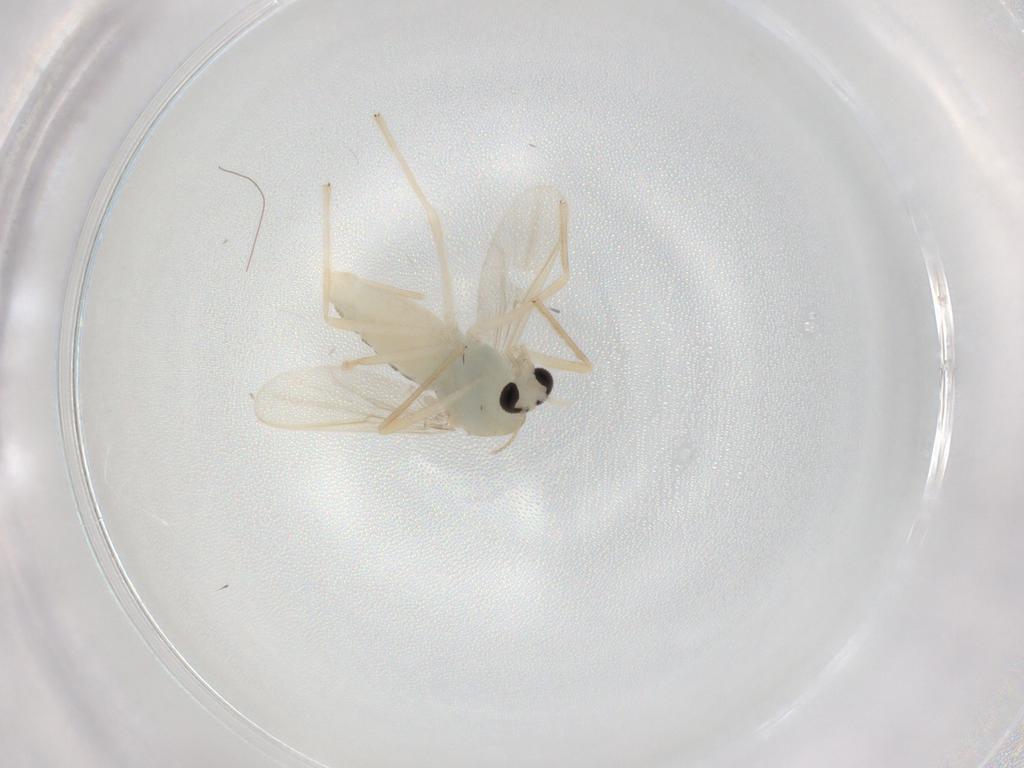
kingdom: Animalia
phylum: Arthropoda
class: Insecta
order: Diptera
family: Chironomidae
